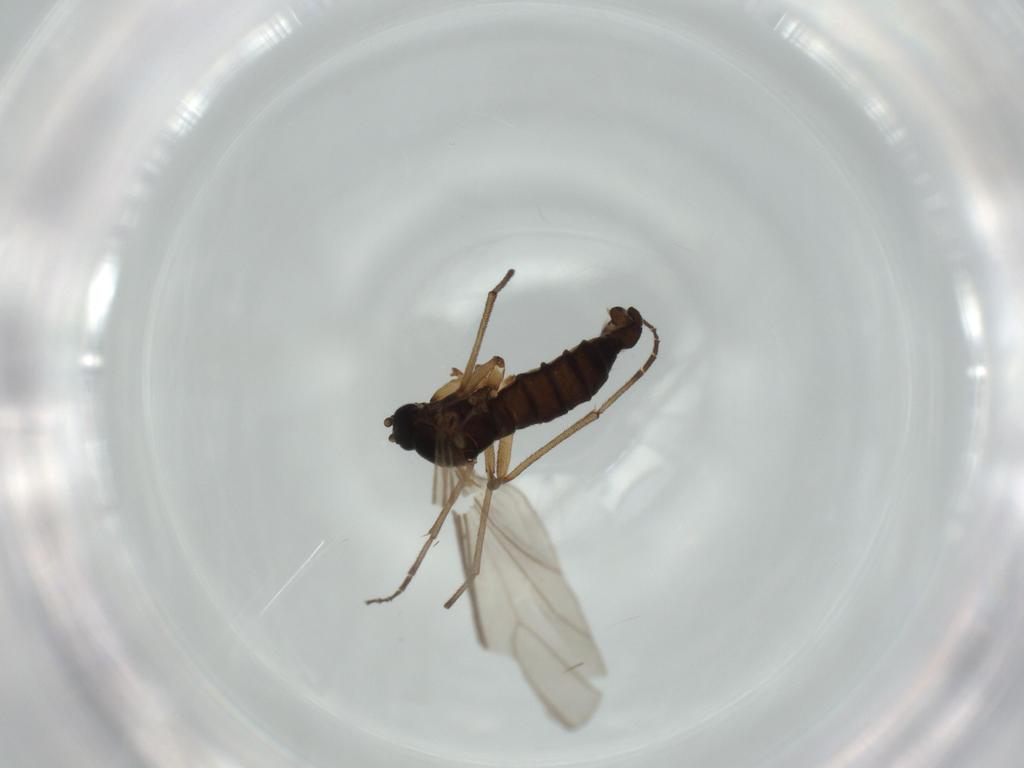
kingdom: Animalia
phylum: Arthropoda
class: Insecta
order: Diptera
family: Sciaridae
